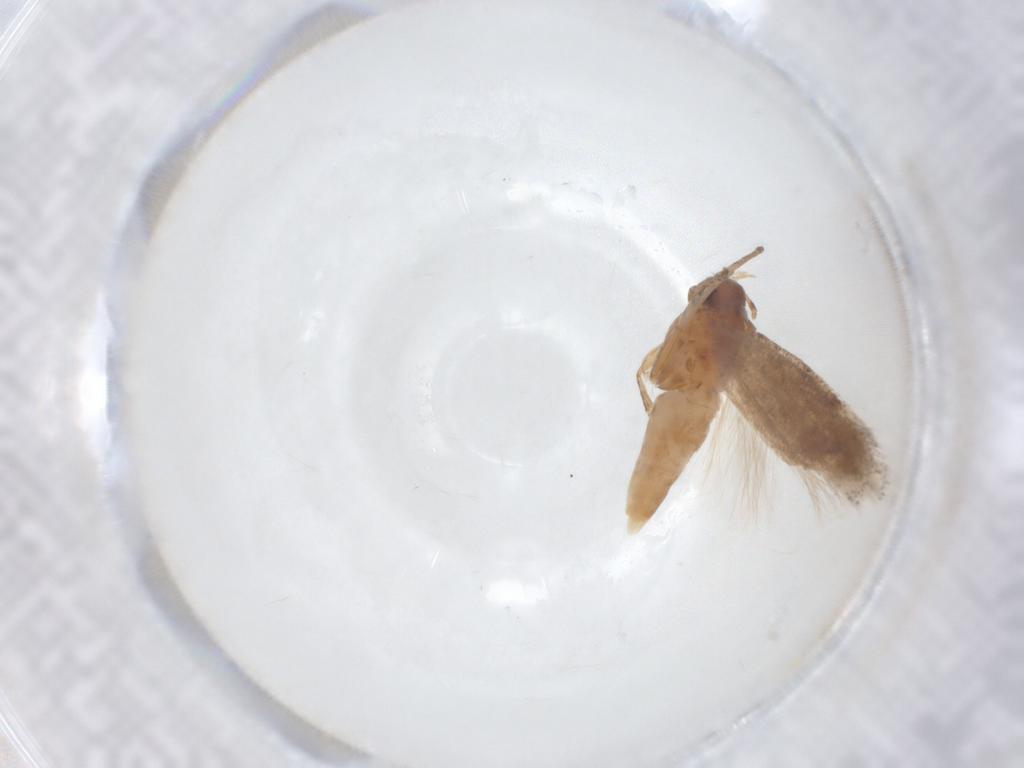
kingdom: Animalia
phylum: Arthropoda
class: Insecta
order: Lepidoptera
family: Gelechiidae
